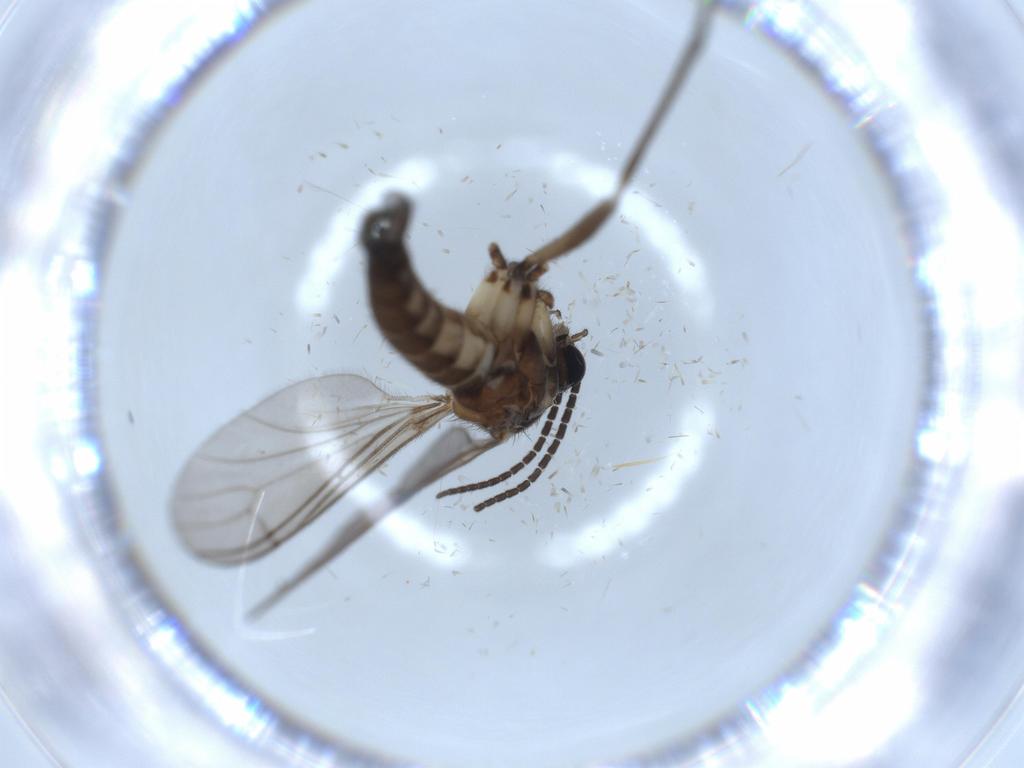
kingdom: Animalia
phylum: Arthropoda
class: Insecta
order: Diptera
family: Sciaridae
